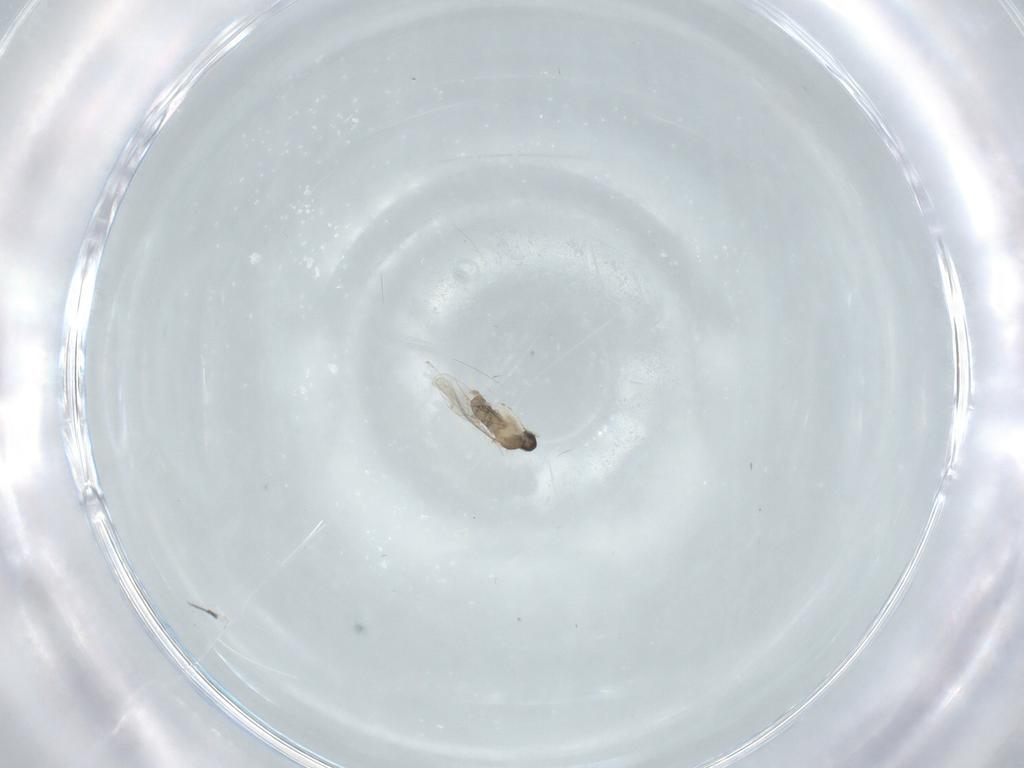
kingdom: Animalia
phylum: Arthropoda
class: Insecta
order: Diptera
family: Cecidomyiidae
